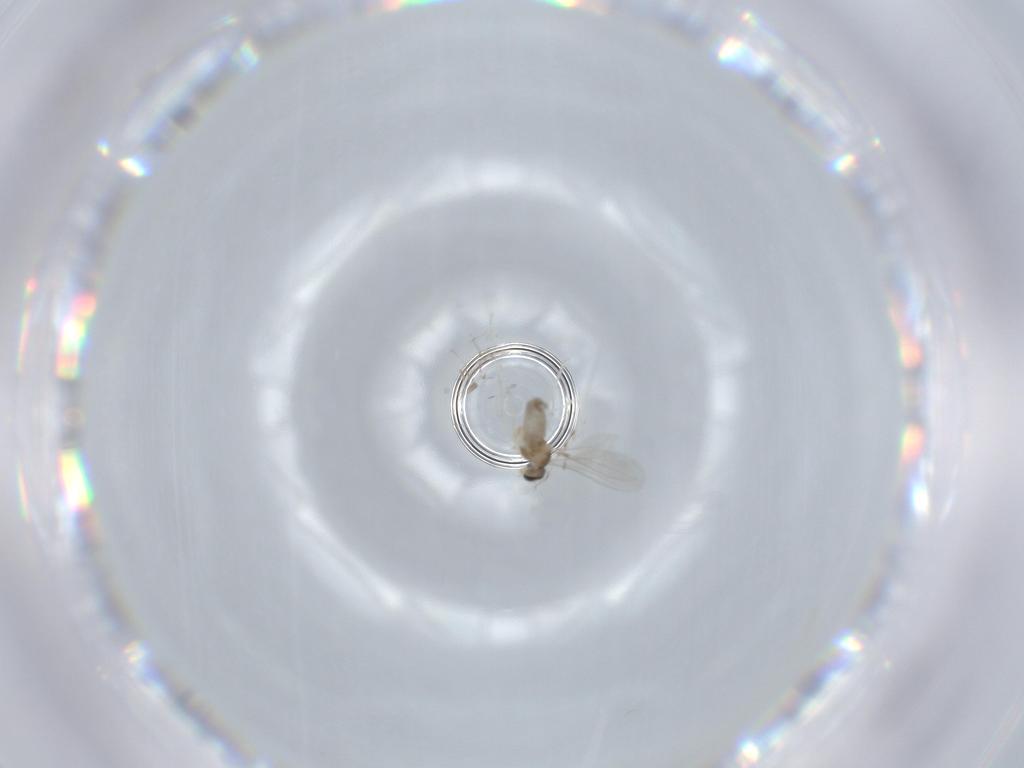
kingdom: Animalia
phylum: Arthropoda
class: Insecta
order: Diptera
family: Cecidomyiidae
